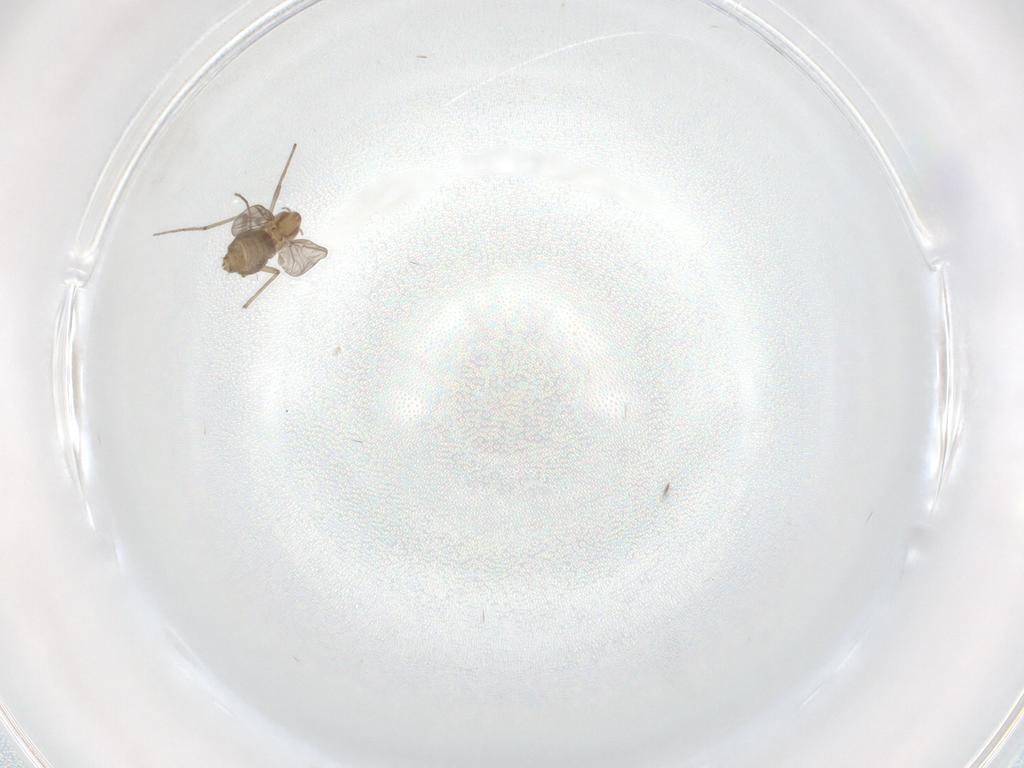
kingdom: Animalia
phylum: Arthropoda
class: Insecta
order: Diptera
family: Chironomidae
